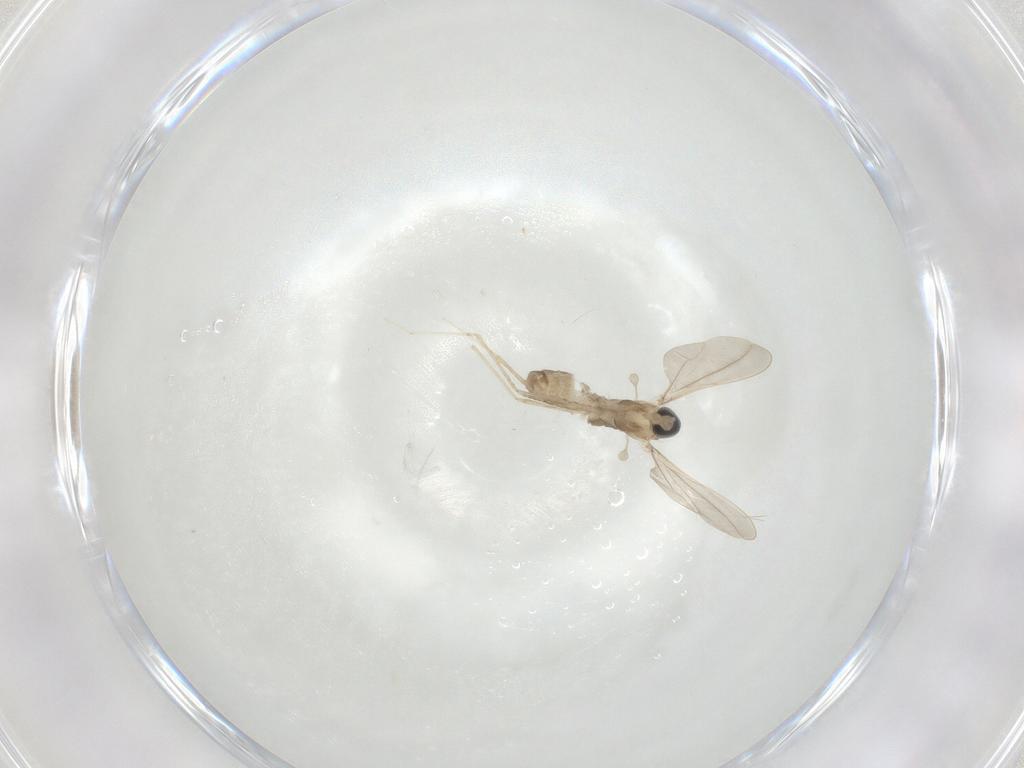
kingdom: Animalia
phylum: Arthropoda
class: Insecta
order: Diptera
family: Cecidomyiidae
